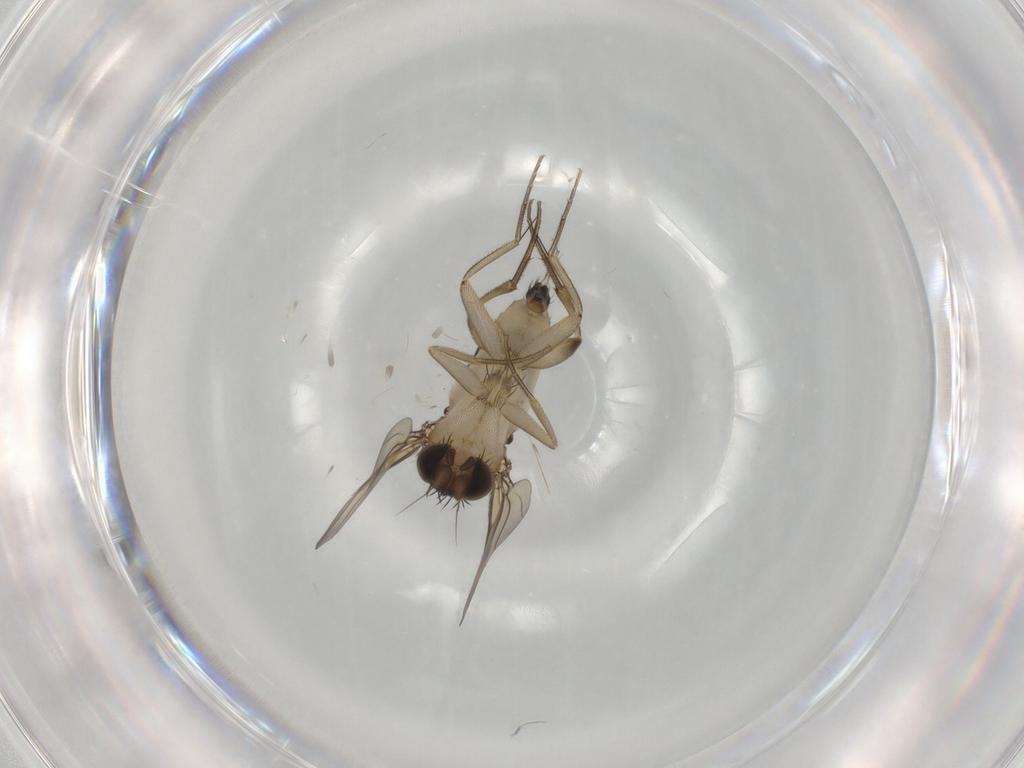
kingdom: Animalia
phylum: Arthropoda
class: Insecta
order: Diptera
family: Phoridae
